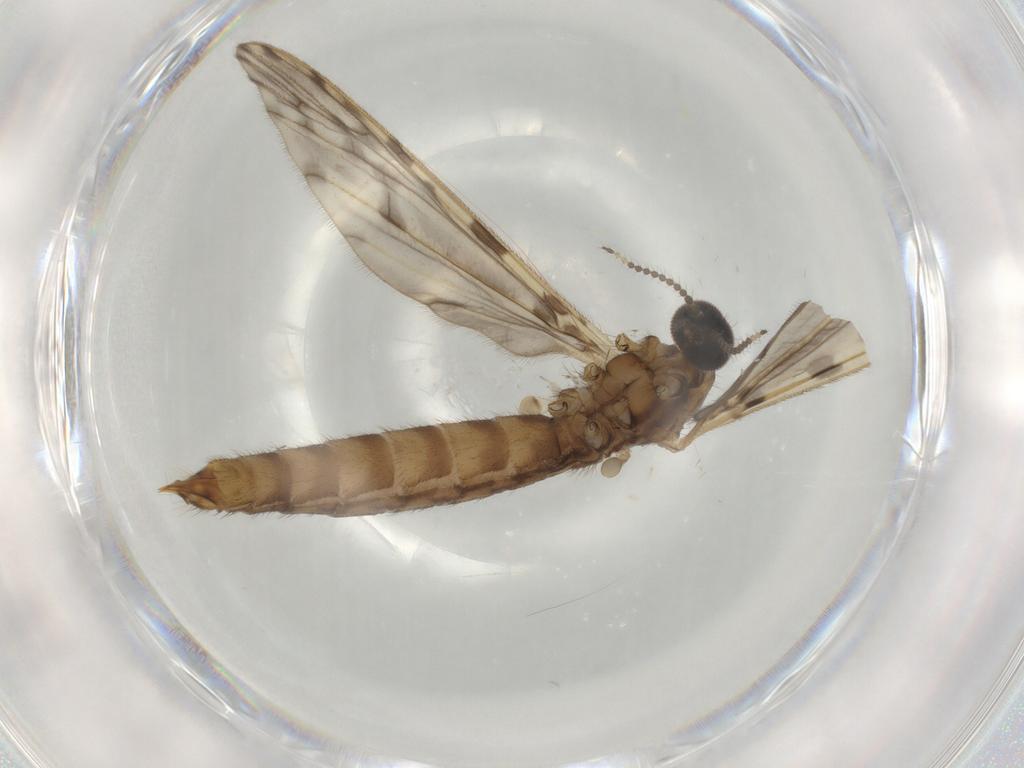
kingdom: Animalia
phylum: Arthropoda
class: Insecta
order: Diptera
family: Limoniidae
